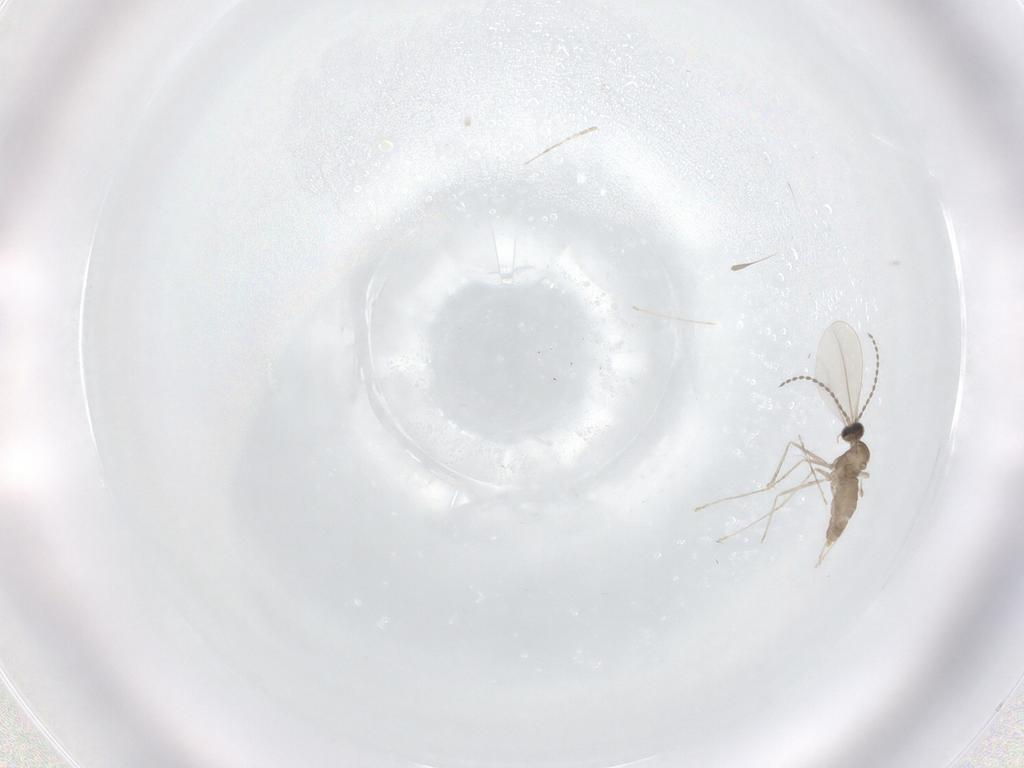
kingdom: Animalia
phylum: Arthropoda
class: Insecta
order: Diptera
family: Cecidomyiidae
